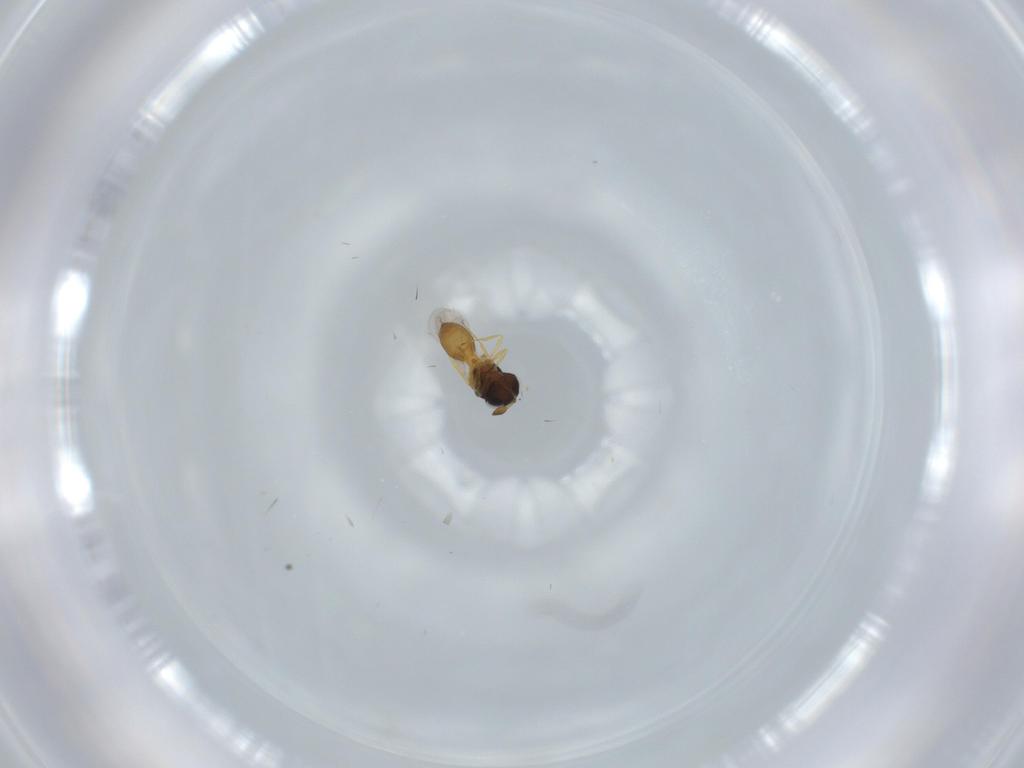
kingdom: Animalia
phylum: Arthropoda
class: Insecta
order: Hymenoptera
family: Scelionidae
